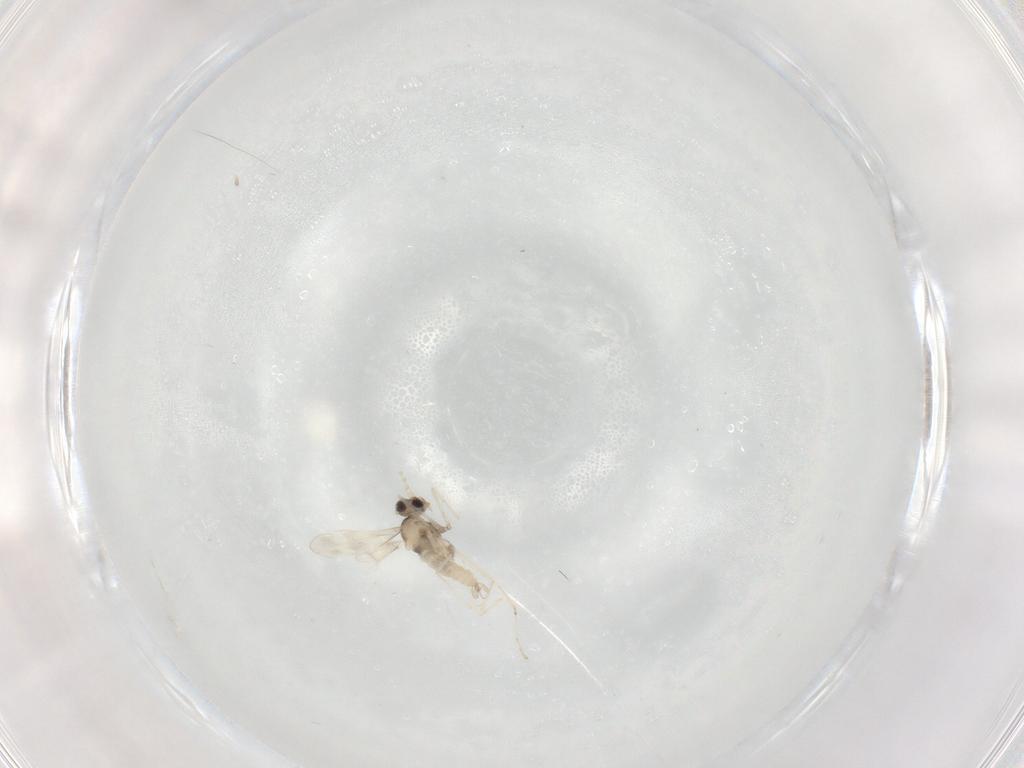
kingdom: Animalia
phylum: Arthropoda
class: Insecta
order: Diptera
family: Cecidomyiidae
